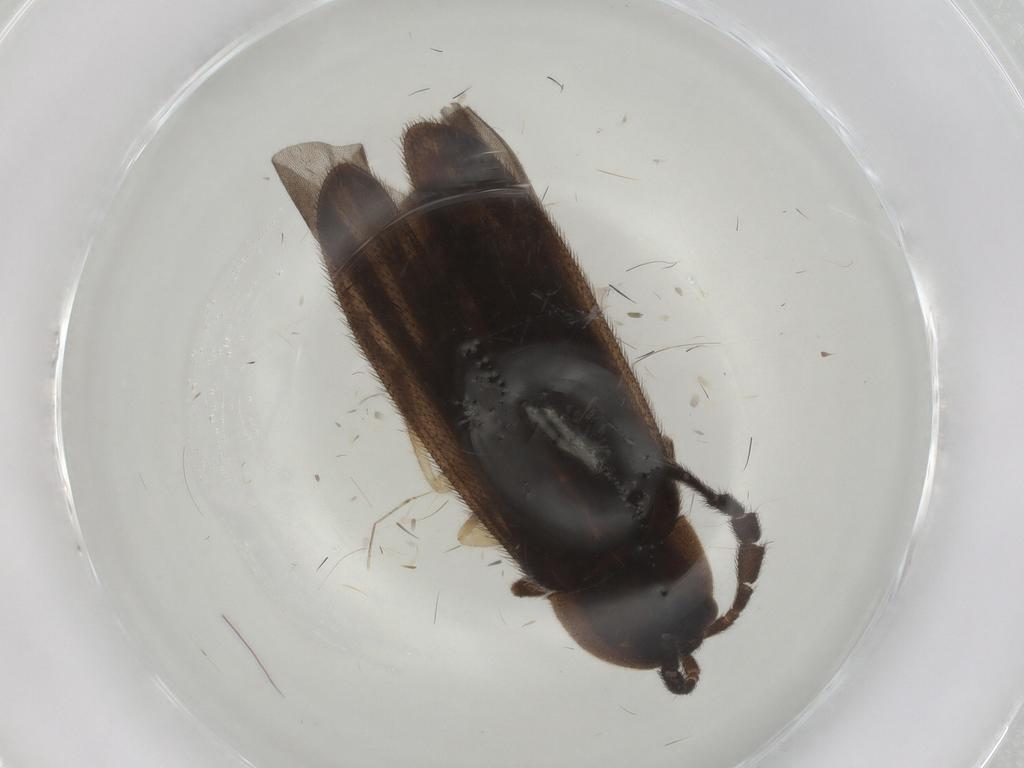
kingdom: Animalia
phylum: Arthropoda
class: Insecta
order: Coleoptera
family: Lampyridae
